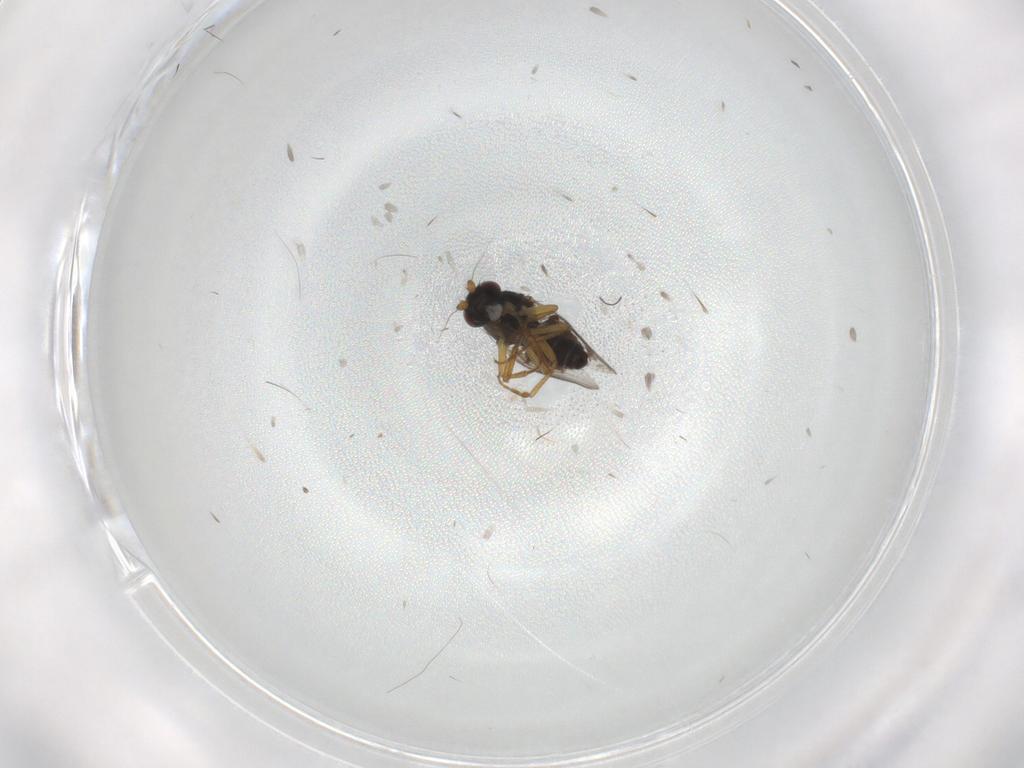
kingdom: Animalia
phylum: Arthropoda
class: Insecta
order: Diptera
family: Sphaeroceridae
